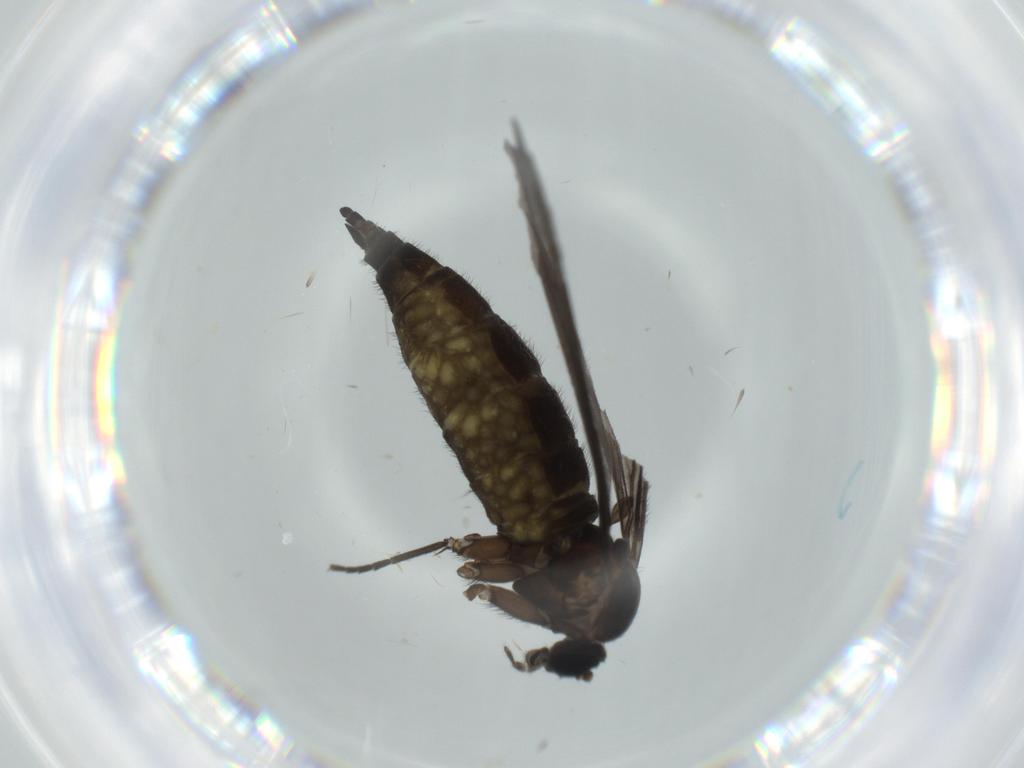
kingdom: Animalia
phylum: Arthropoda
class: Insecta
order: Diptera
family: Sciaridae
